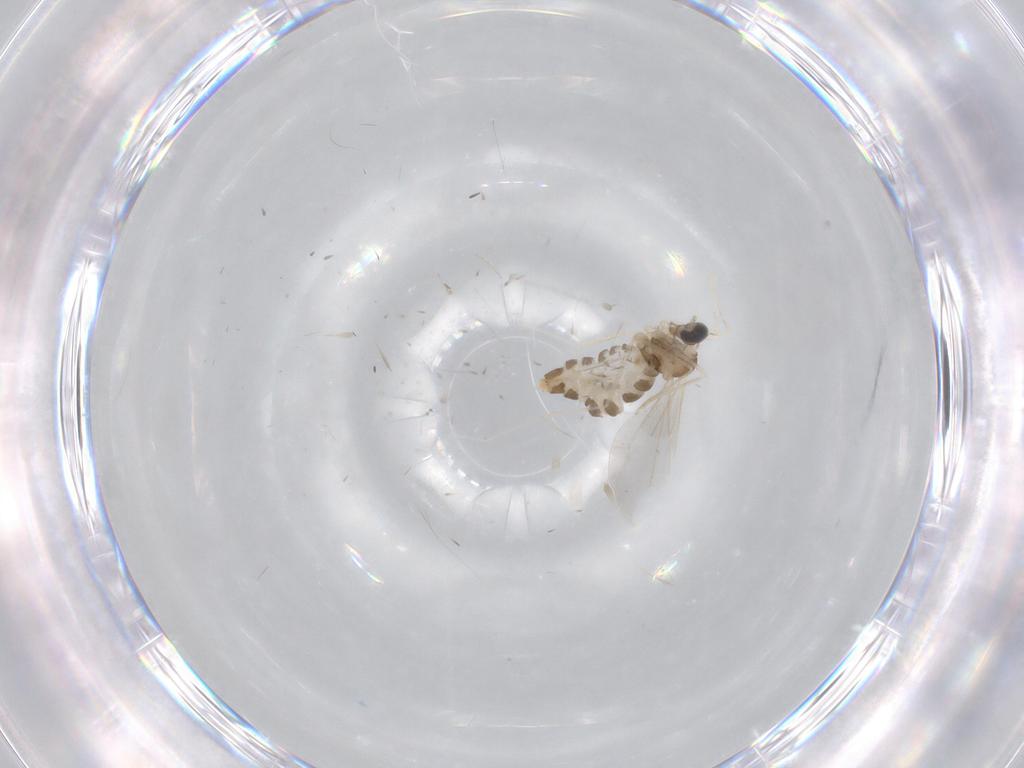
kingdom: Animalia
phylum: Arthropoda
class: Insecta
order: Diptera
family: Cecidomyiidae
